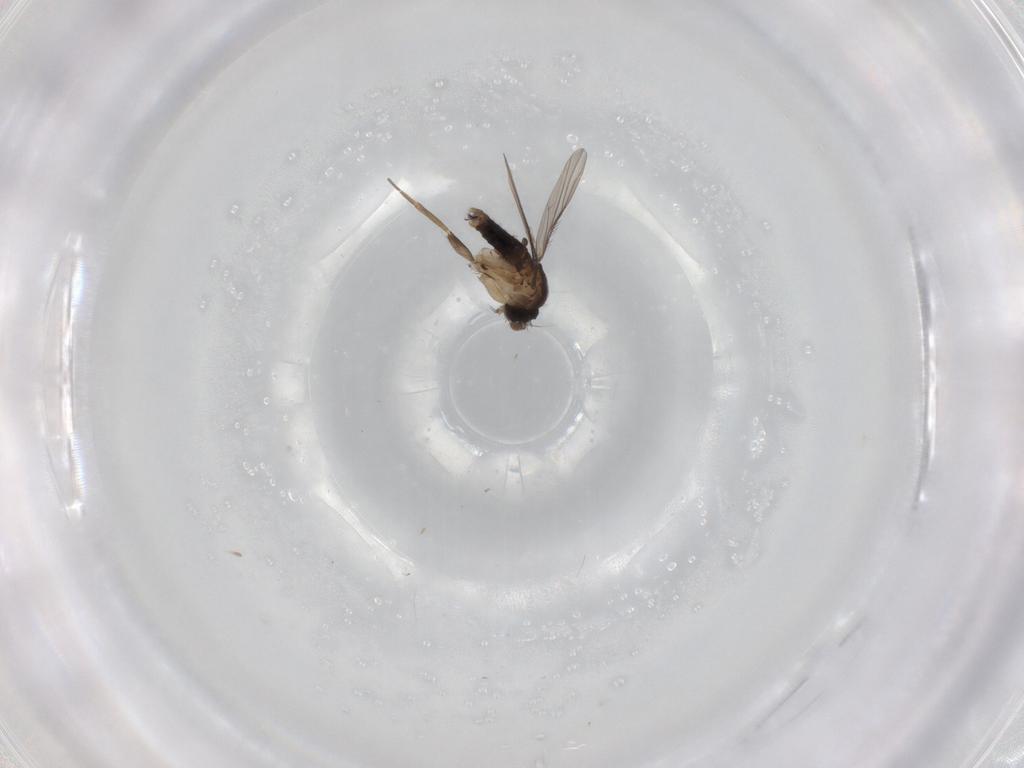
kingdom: Animalia
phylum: Arthropoda
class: Insecta
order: Diptera
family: Phoridae
